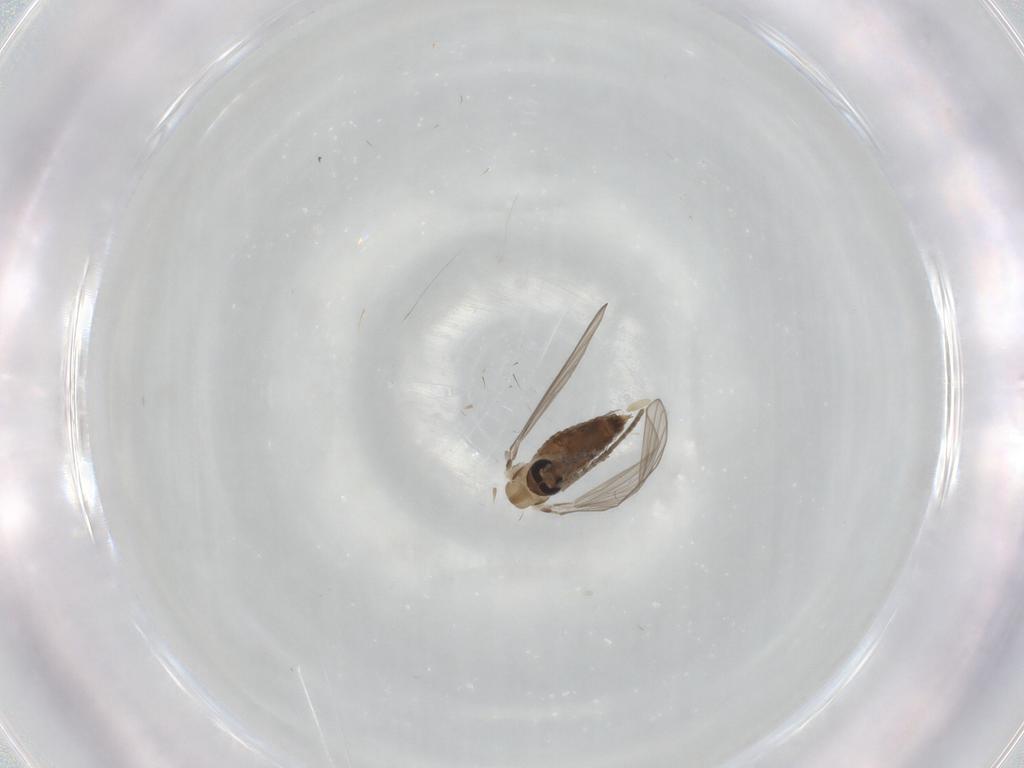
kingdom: Animalia
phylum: Arthropoda
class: Insecta
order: Diptera
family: Psychodidae
